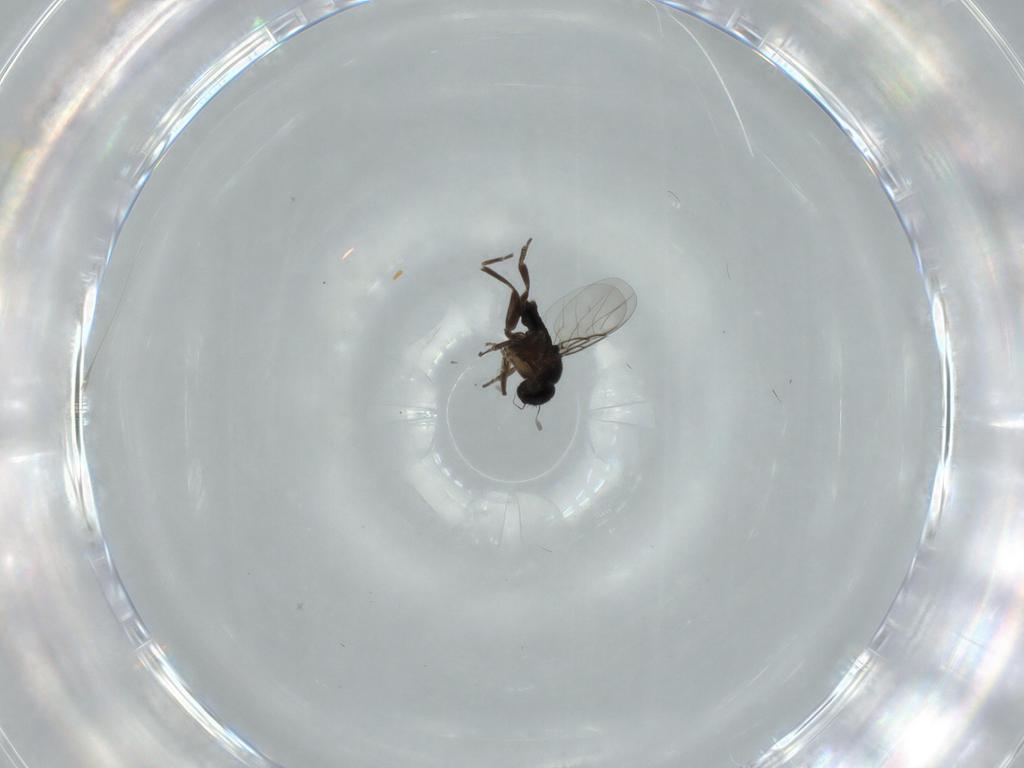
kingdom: Animalia
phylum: Arthropoda
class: Insecta
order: Diptera
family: Phoridae
